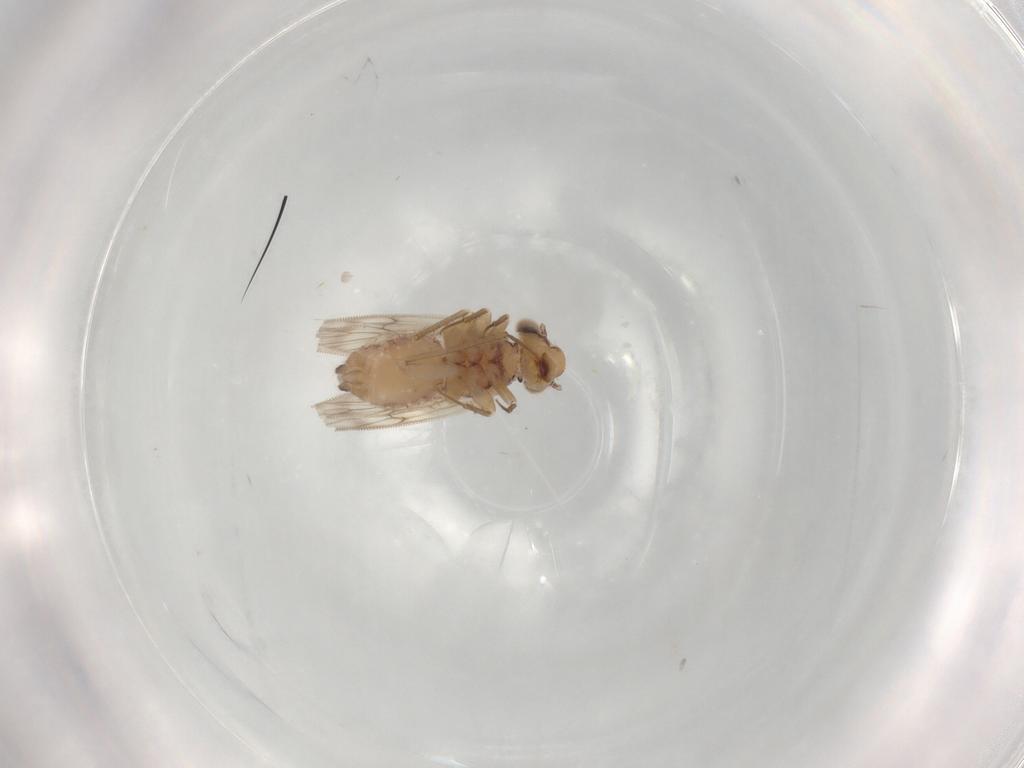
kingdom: Animalia
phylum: Arthropoda
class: Insecta
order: Psocodea
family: Lepidopsocidae
